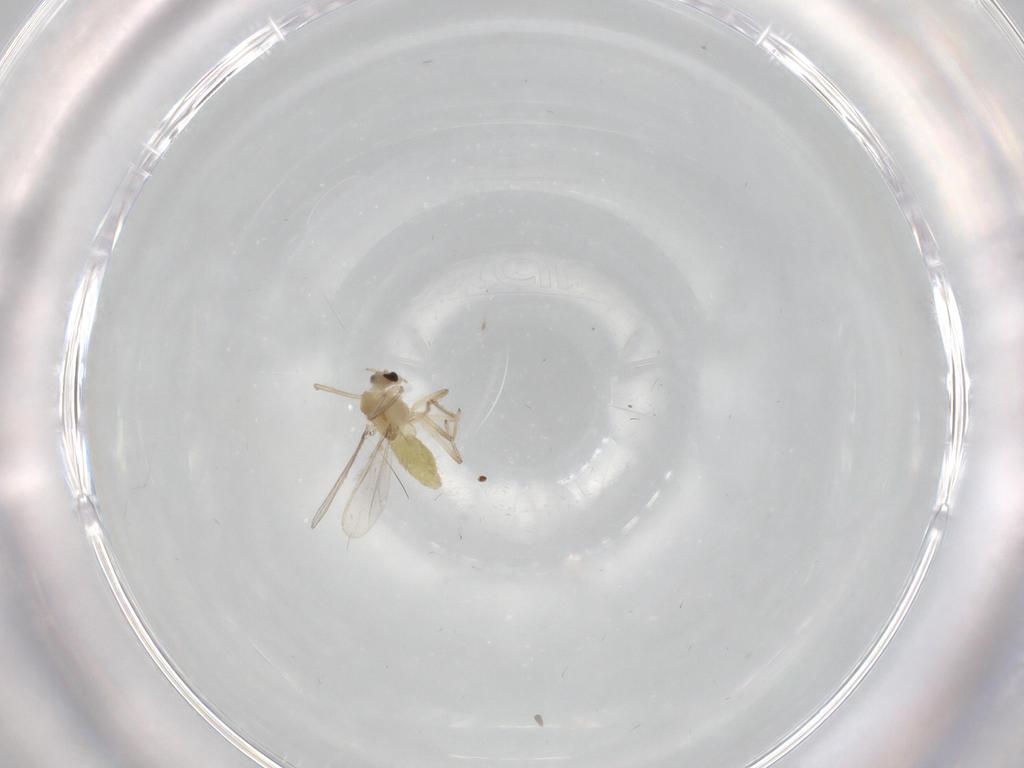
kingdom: Animalia
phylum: Arthropoda
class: Insecta
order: Diptera
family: Chironomidae
